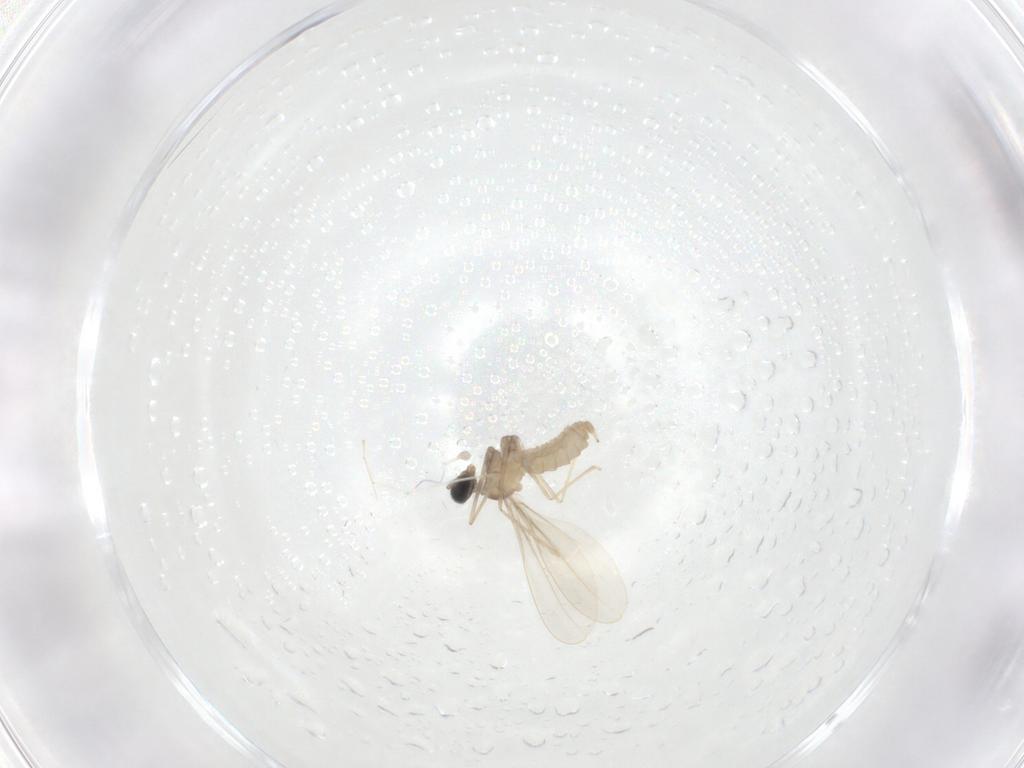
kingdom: Animalia
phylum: Arthropoda
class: Insecta
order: Diptera
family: Cecidomyiidae
